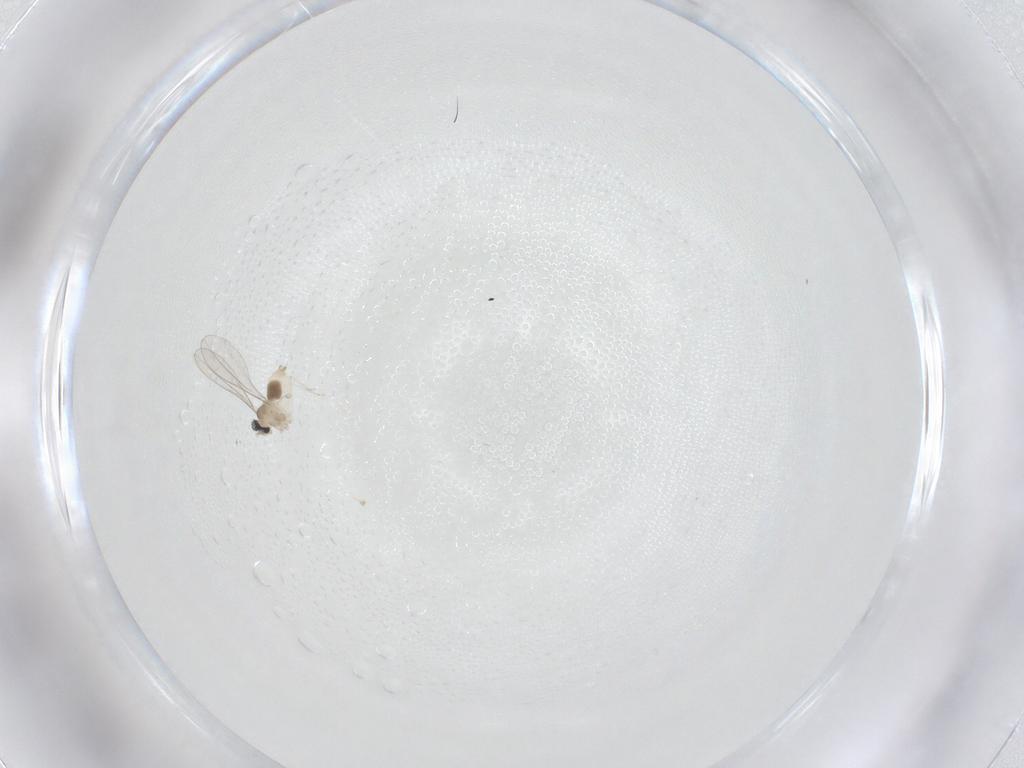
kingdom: Animalia
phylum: Arthropoda
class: Insecta
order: Diptera
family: Cecidomyiidae
